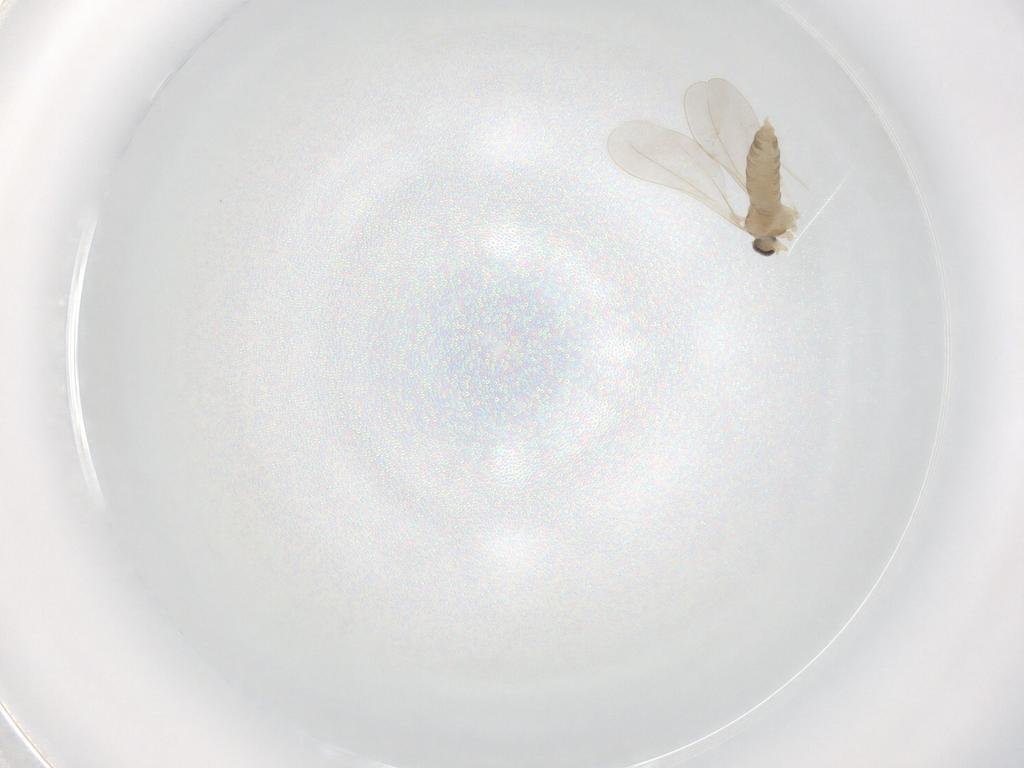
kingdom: Animalia
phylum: Arthropoda
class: Insecta
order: Diptera
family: Cecidomyiidae
